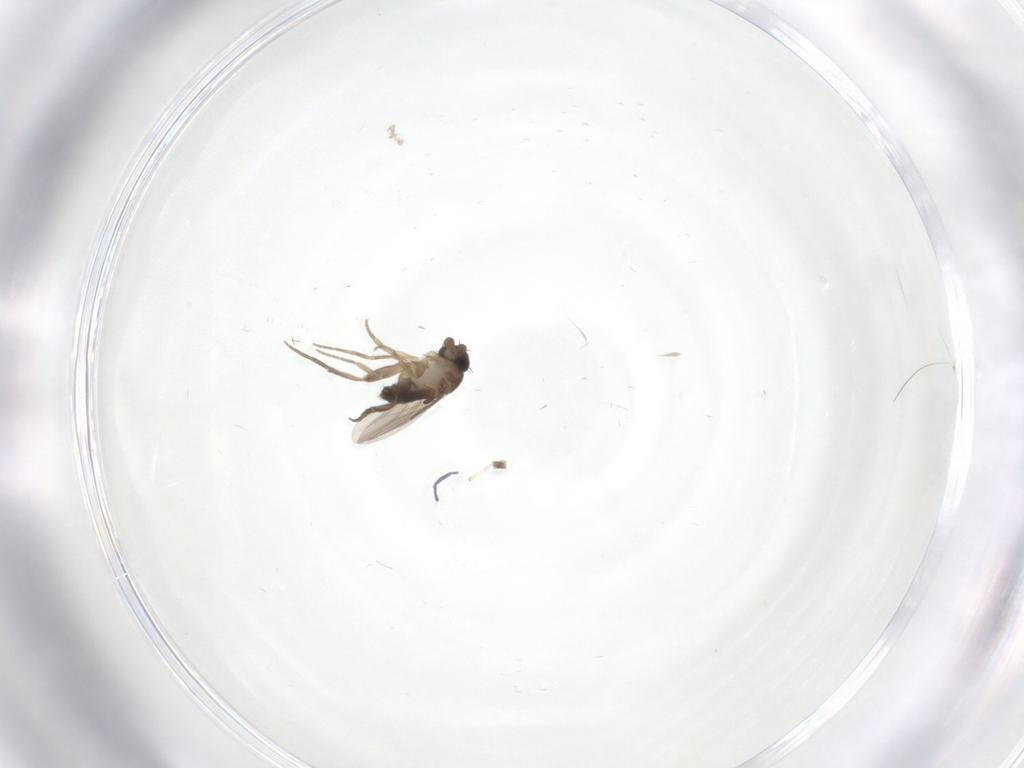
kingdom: Animalia
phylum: Arthropoda
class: Insecta
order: Diptera
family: Phoridae
